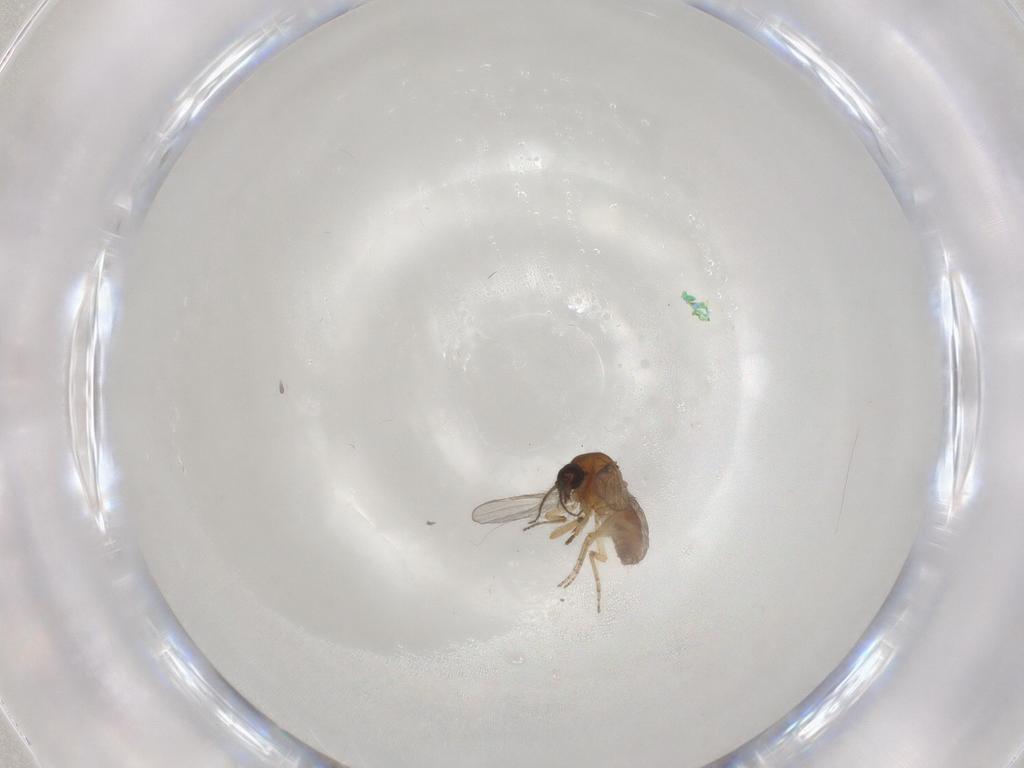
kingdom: Animalia
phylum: Arthropoda
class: Insecta
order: Diptera
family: Ceratopogonidae
